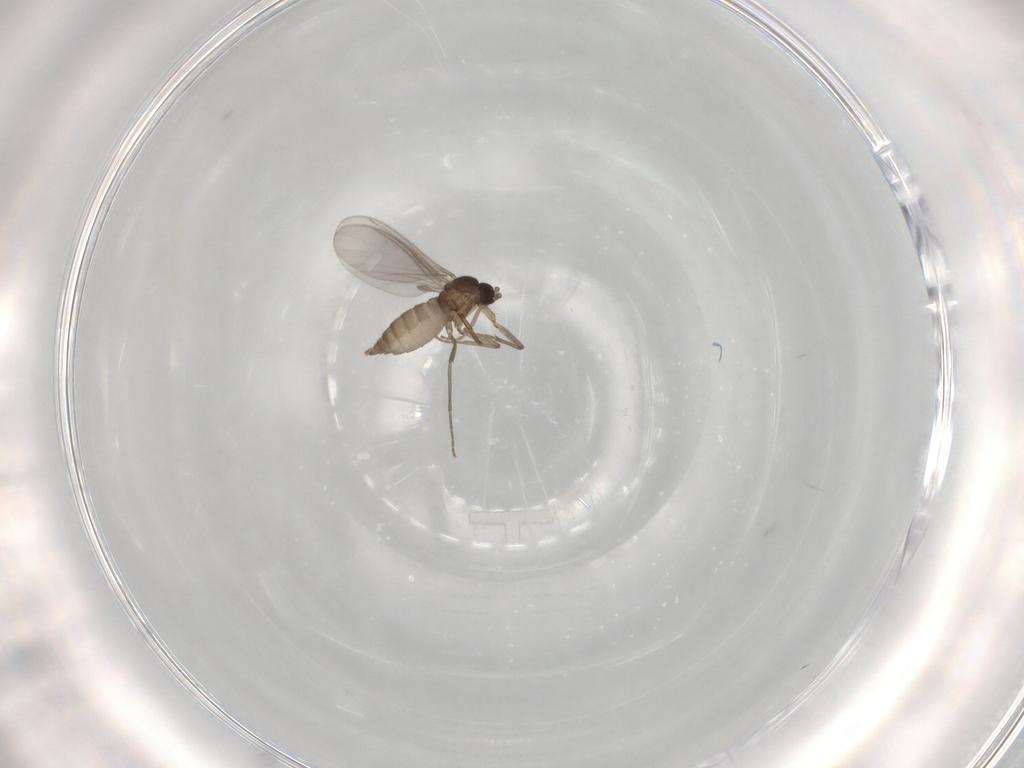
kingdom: Animalia
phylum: Arthropoda
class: Insecta
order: Diptera
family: Phoridae
